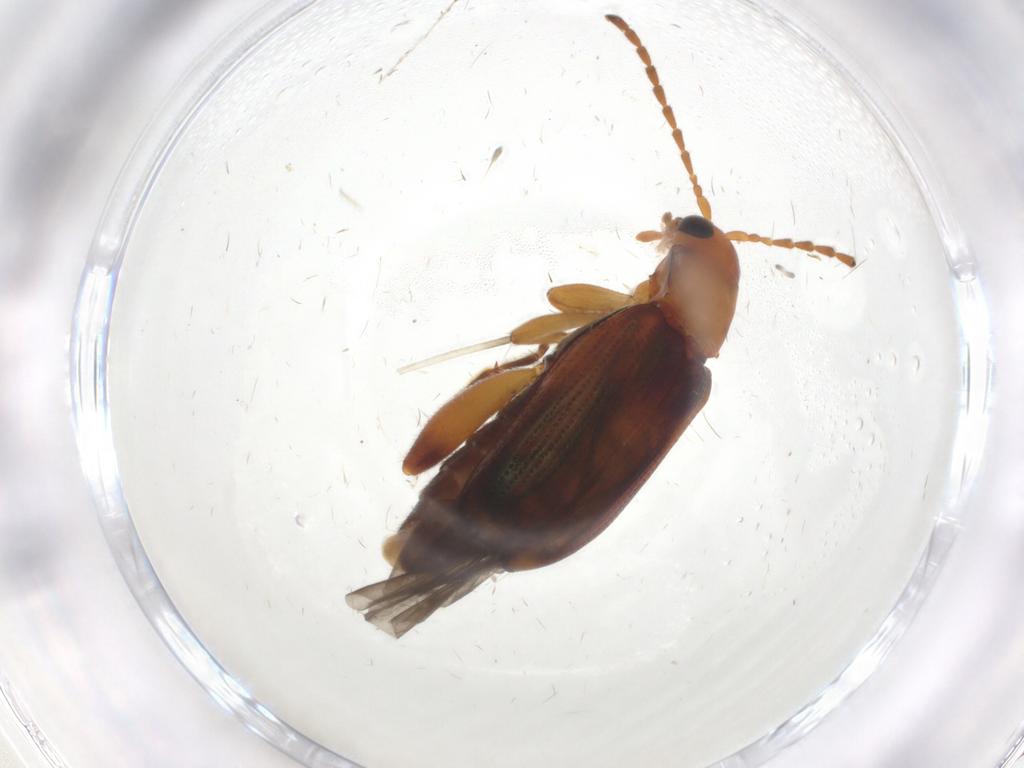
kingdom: Animalia
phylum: Arthropoda
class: Insecta
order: Coleoptera
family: Chrysomelidae
